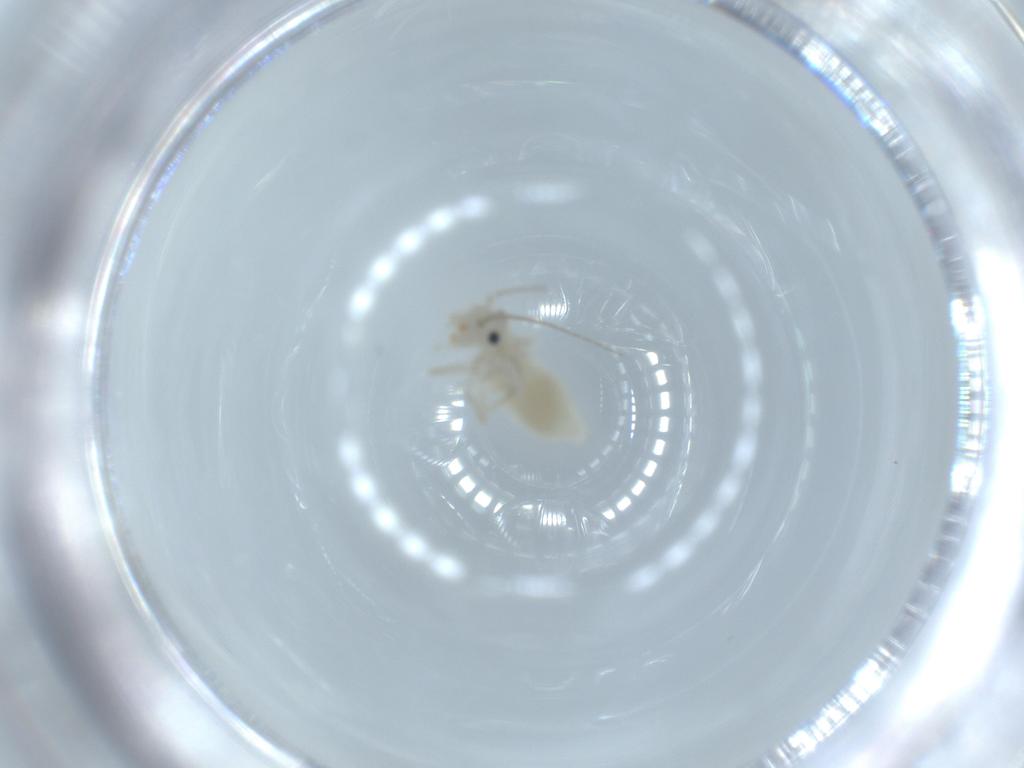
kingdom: Animalia
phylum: Arthropoda
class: Insecta
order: Psocodea
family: Caeciliusidae
